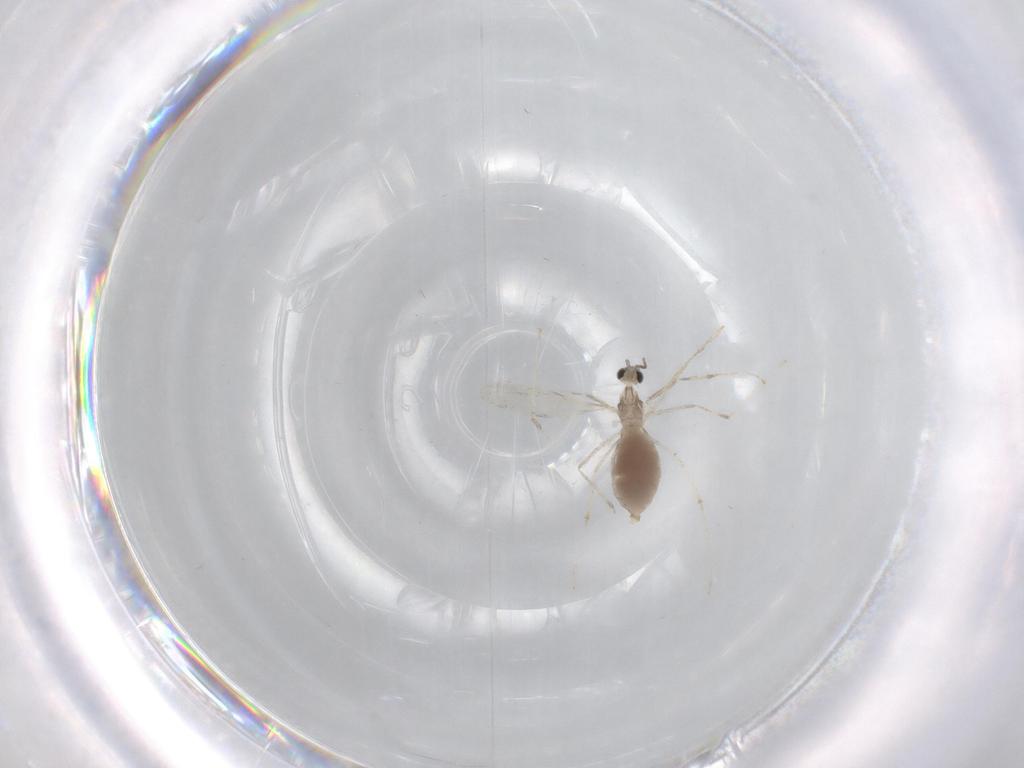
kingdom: Animalia
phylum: Arthropoda
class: Insecta
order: Diptera
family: Cecidomyiidae
